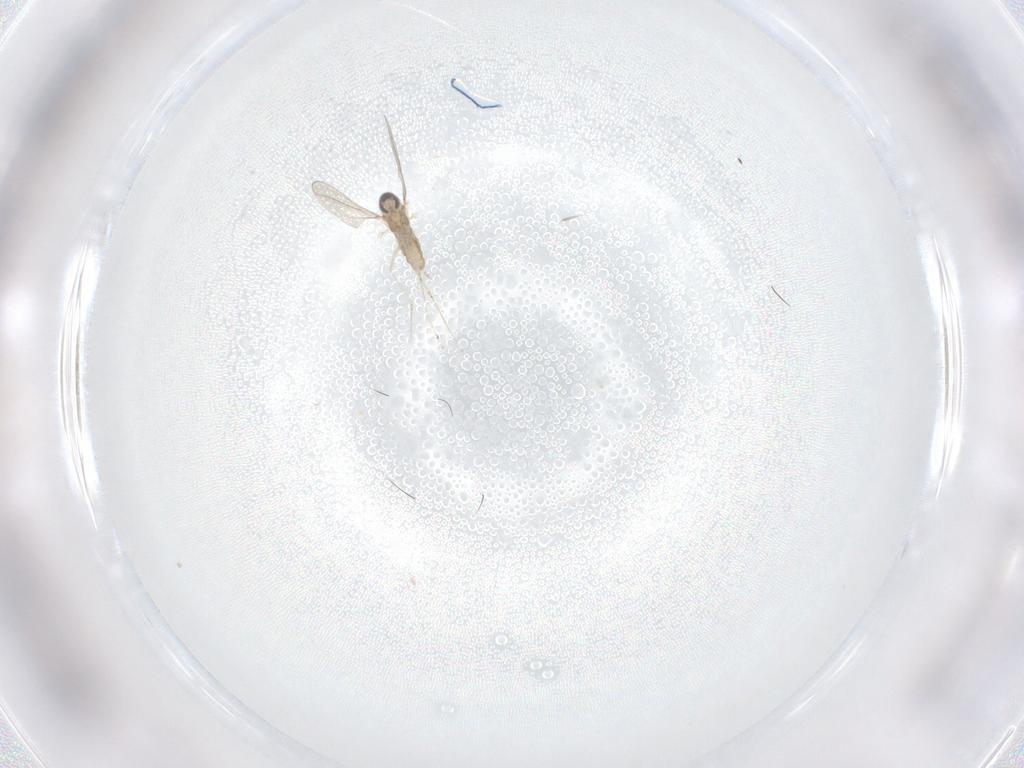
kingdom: Animalia
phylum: Arthropoda
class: Insecta
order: Diptera
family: Cecidomyiidae
